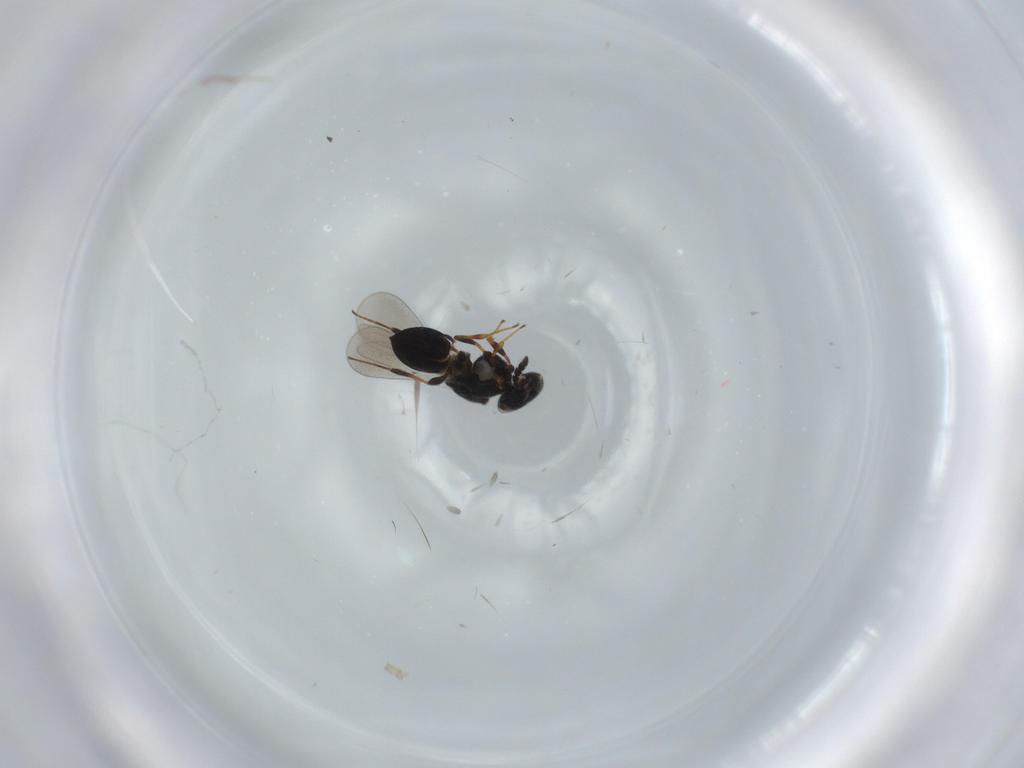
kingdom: Animalia
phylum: Arthropoda
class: Insecta
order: Hymenoptera
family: Platygastridae
